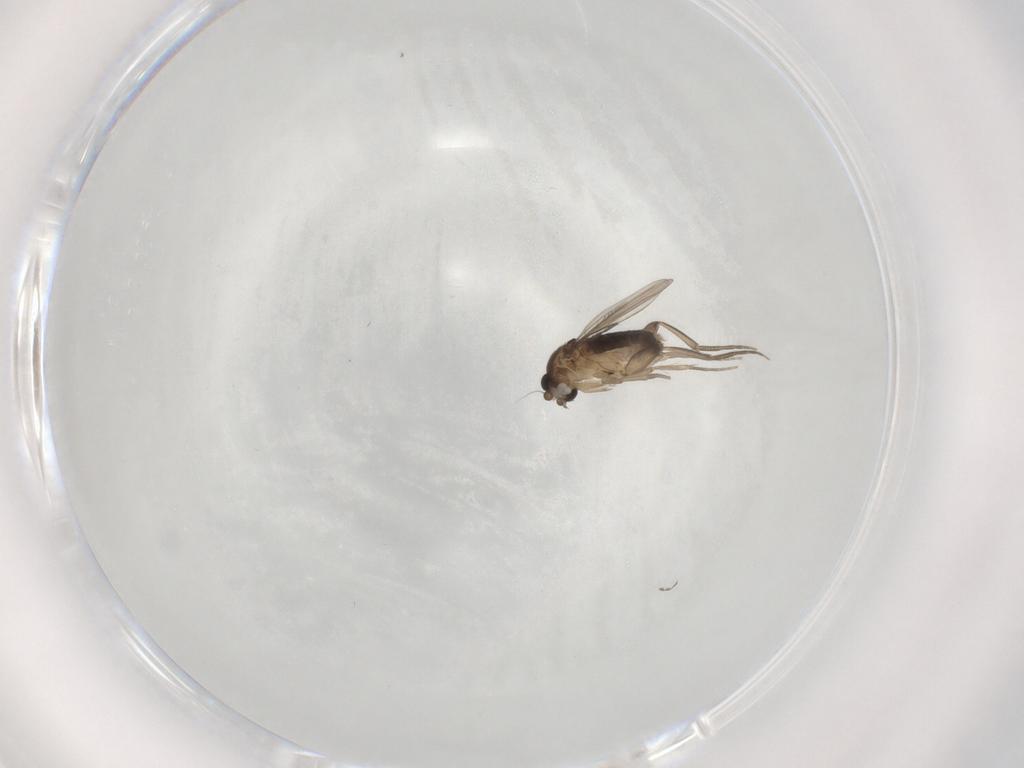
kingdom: Animalia
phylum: Arthropoda
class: Insecta
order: Diptera
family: Chironomidae
